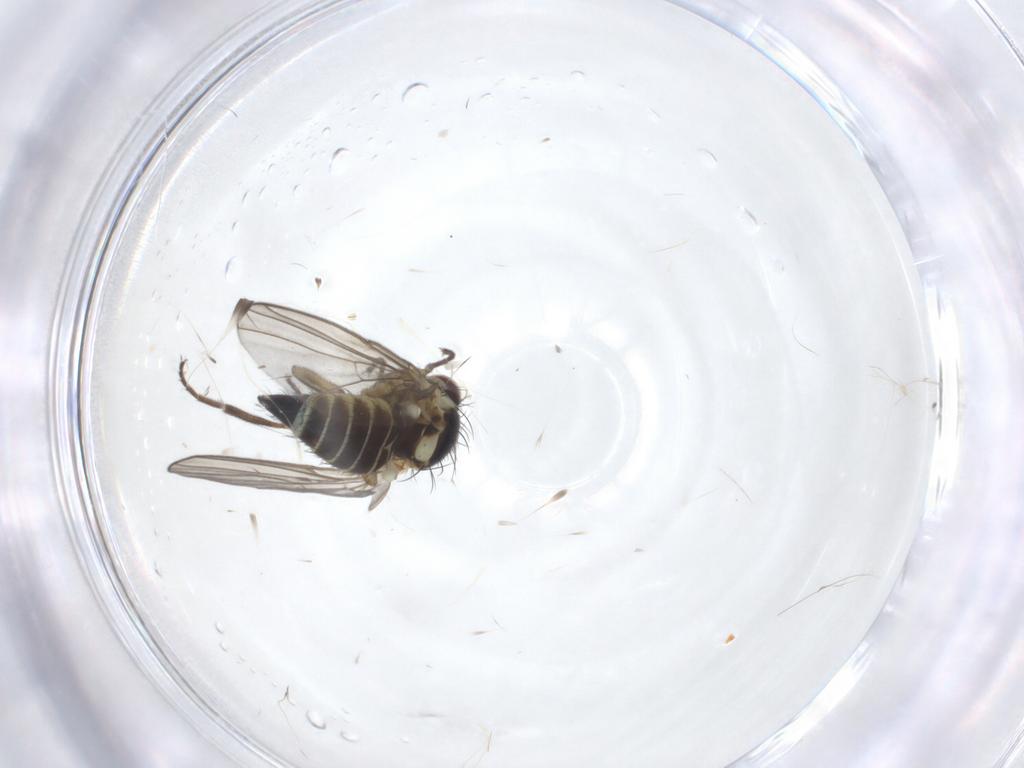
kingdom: Animalia
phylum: Arthropoda
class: Insecta
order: Diptera
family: Agromyzidae
